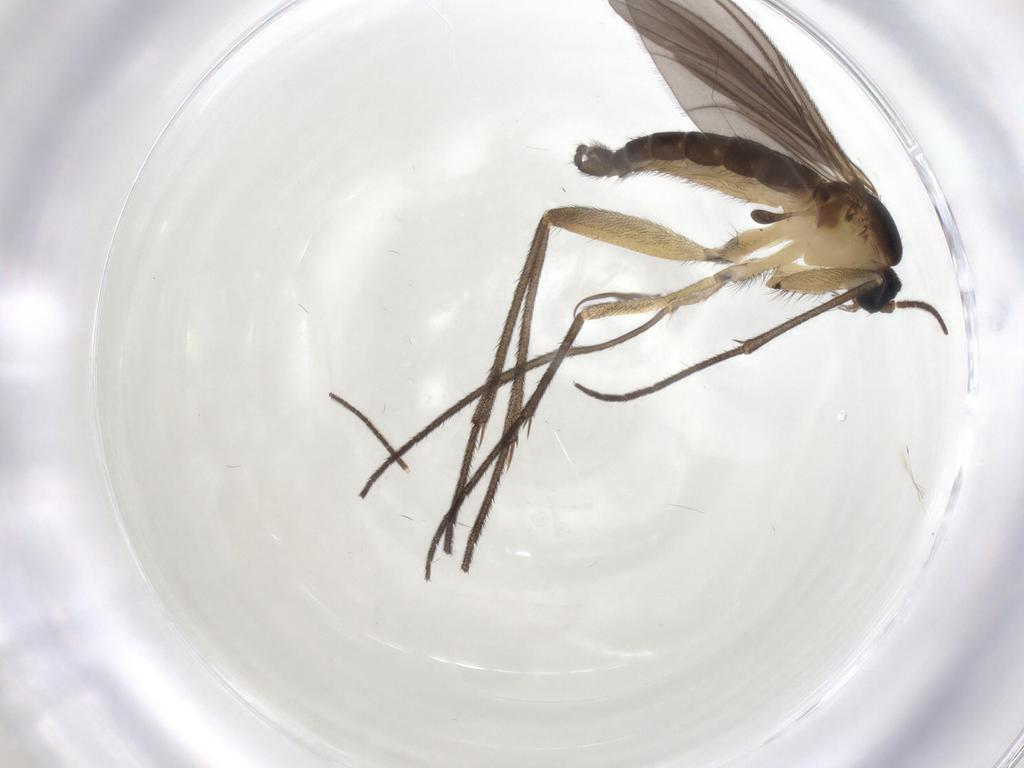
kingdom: Animalia
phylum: Arthropoda
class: Insecta
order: Diptera
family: Sciaridae
